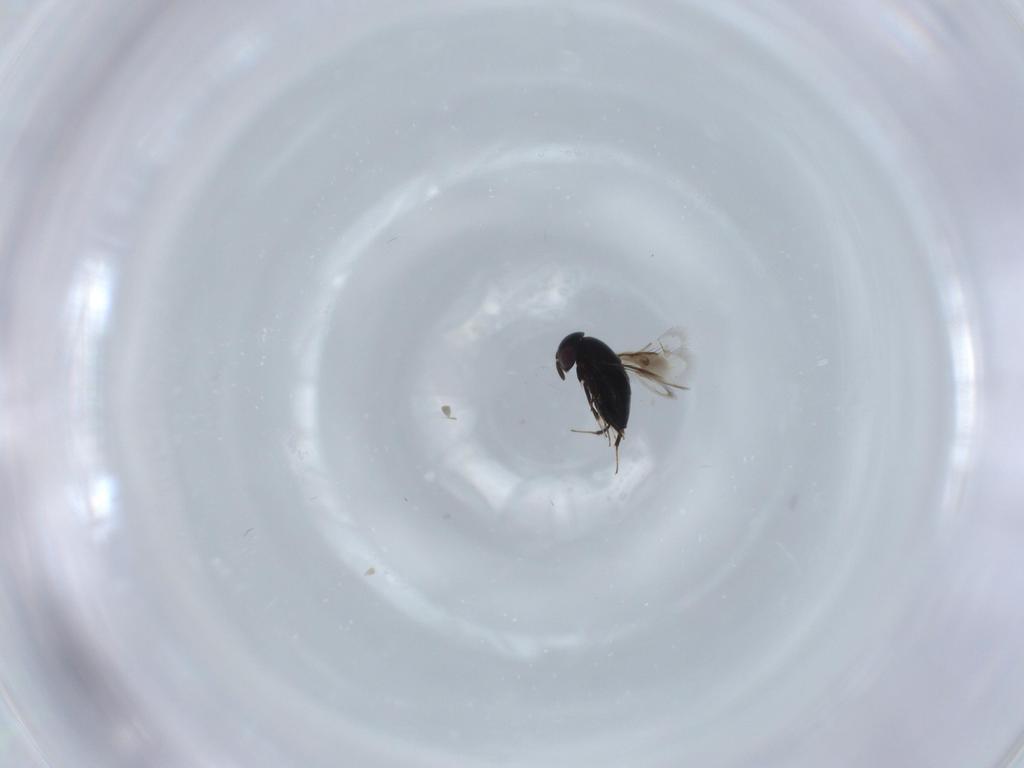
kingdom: Animalia
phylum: Arthropoda
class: Insecta
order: Hymenoptera
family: Signiphoridae
